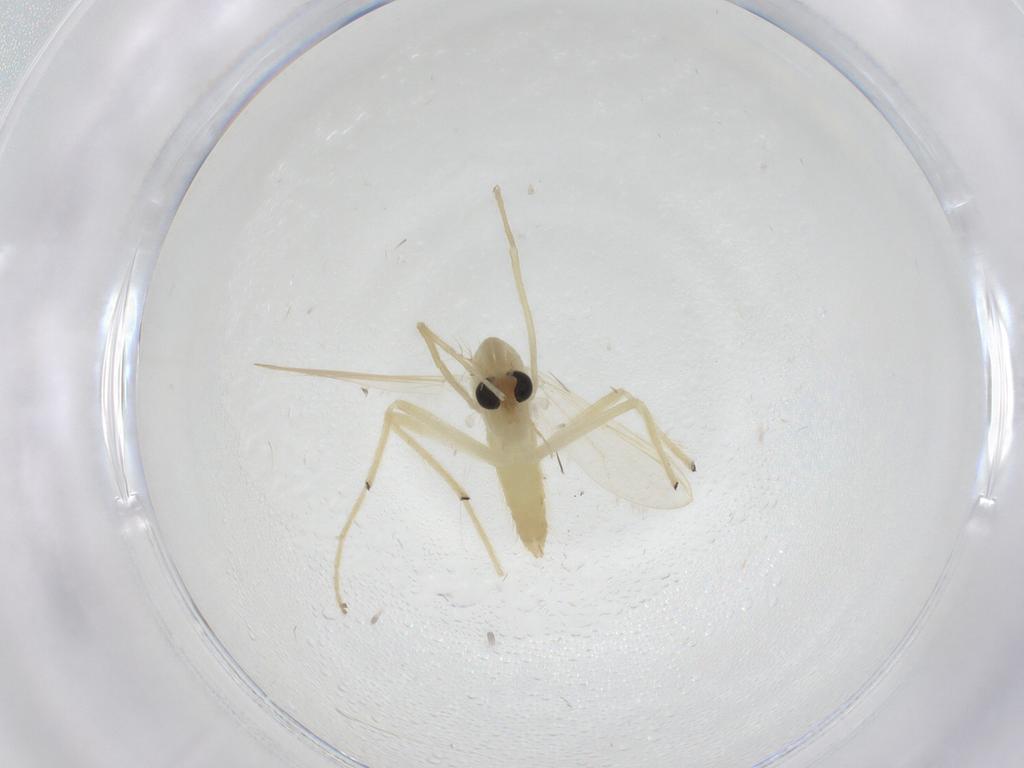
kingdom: Animalia
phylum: Arthropoda
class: Insecta
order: Diptera
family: Chironomidae
